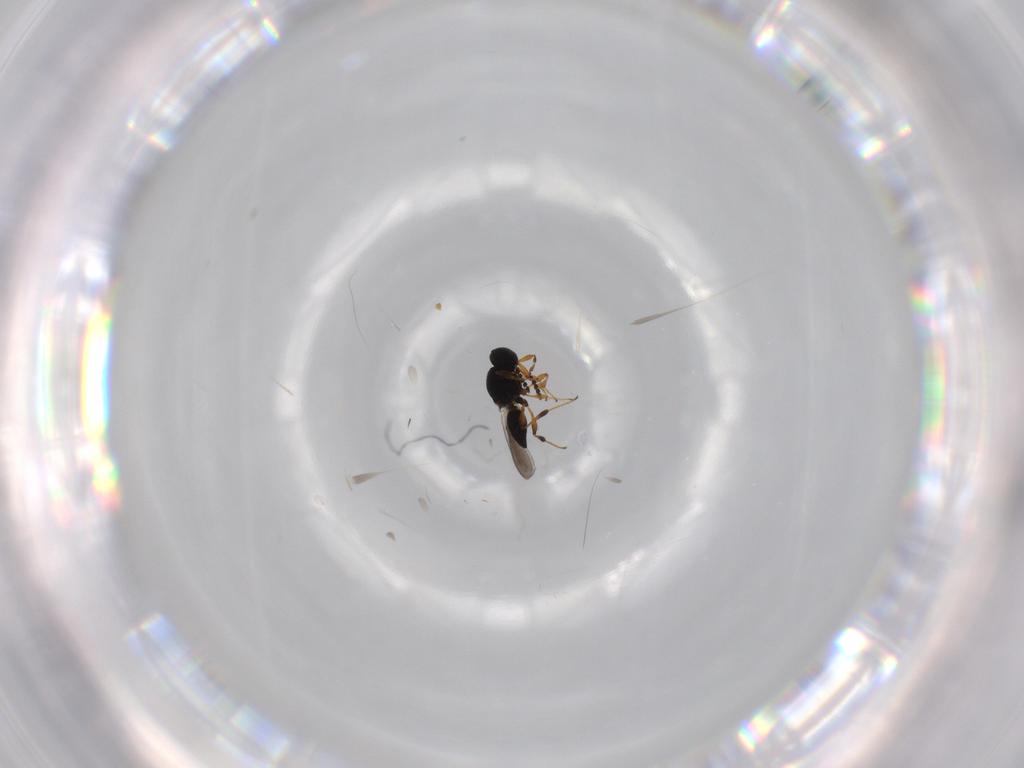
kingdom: Animalia
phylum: Arthropoda
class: Insecta
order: Hymenoptera
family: Platygastridae
